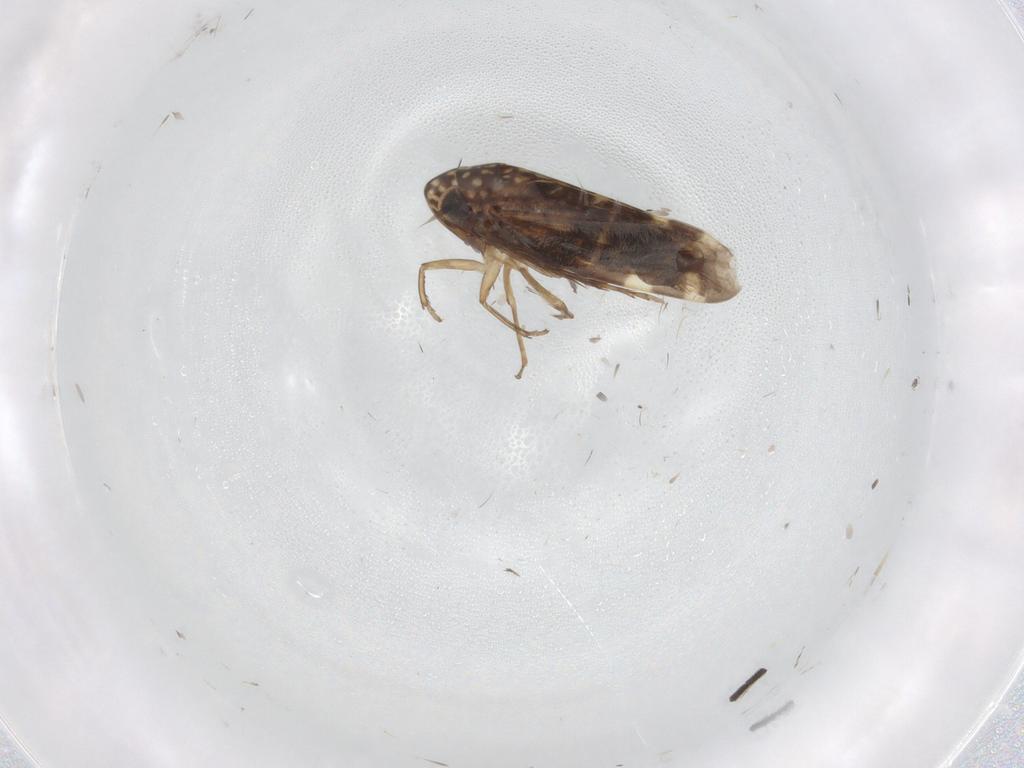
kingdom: Animalia
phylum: Arthropoda
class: Insecta
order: Hemiptera
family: Cicadellidae
